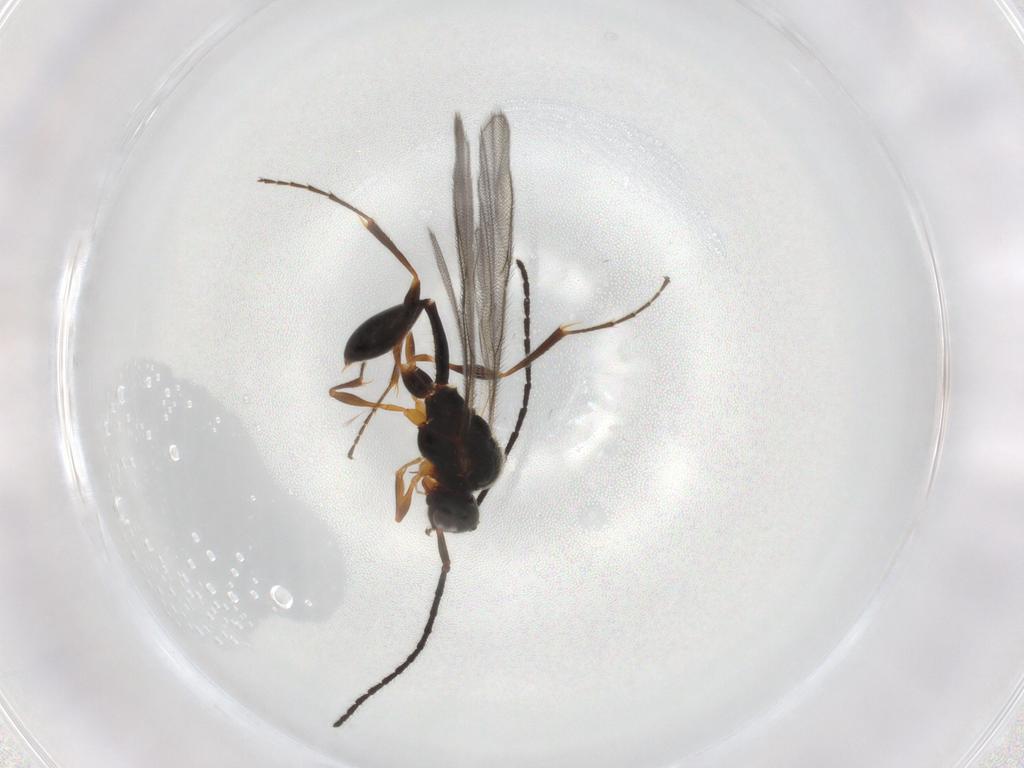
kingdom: Animalia
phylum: Arthropoda
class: Insecta
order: Hymenoptera
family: Diapriidae
